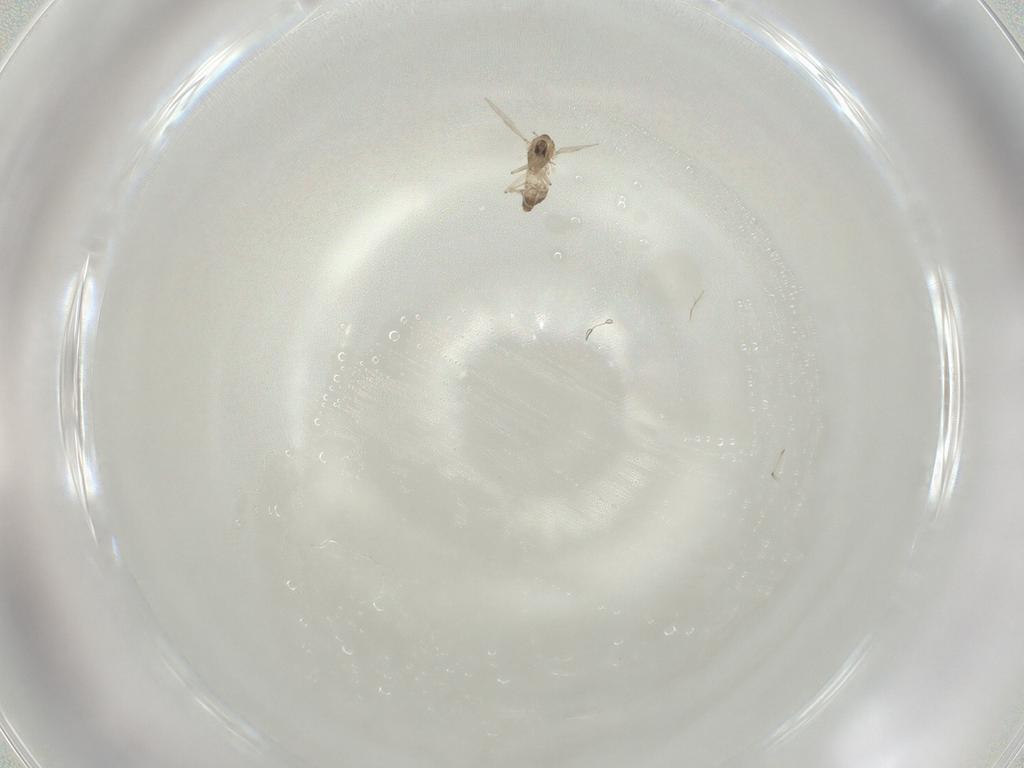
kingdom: Animalia
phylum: Arthropoda
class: Insecta
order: Diptera
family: Chironomidae
